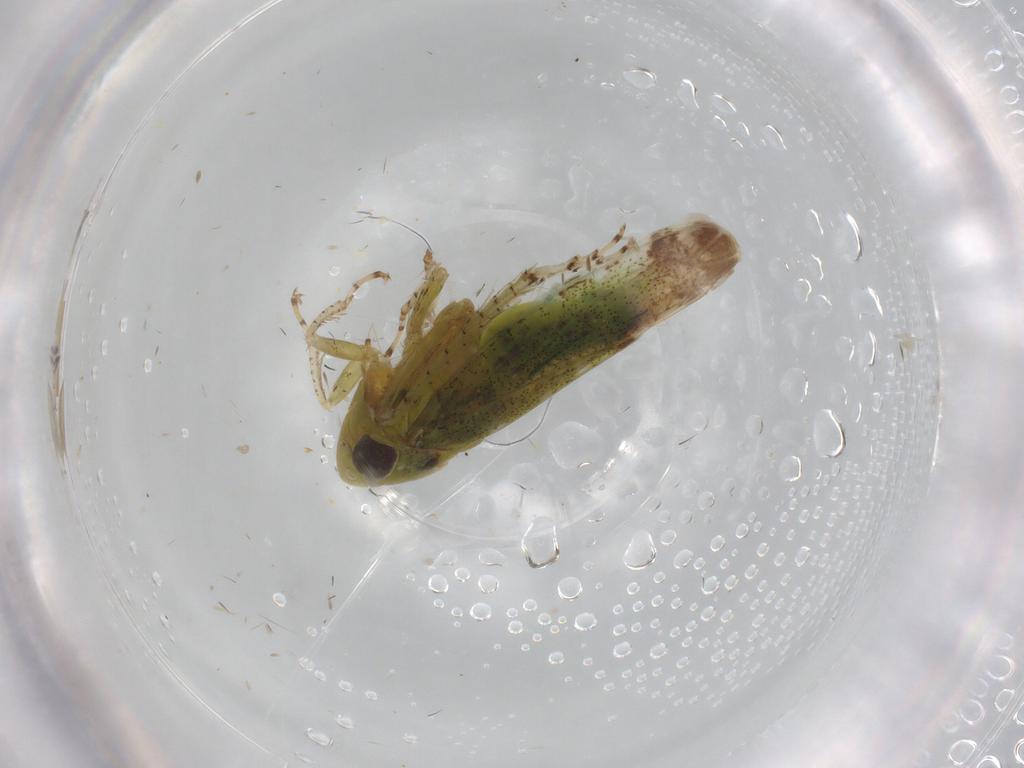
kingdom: Animalia
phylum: Arthropoda
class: Insecta
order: Hemiptera
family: Cicadellidae
